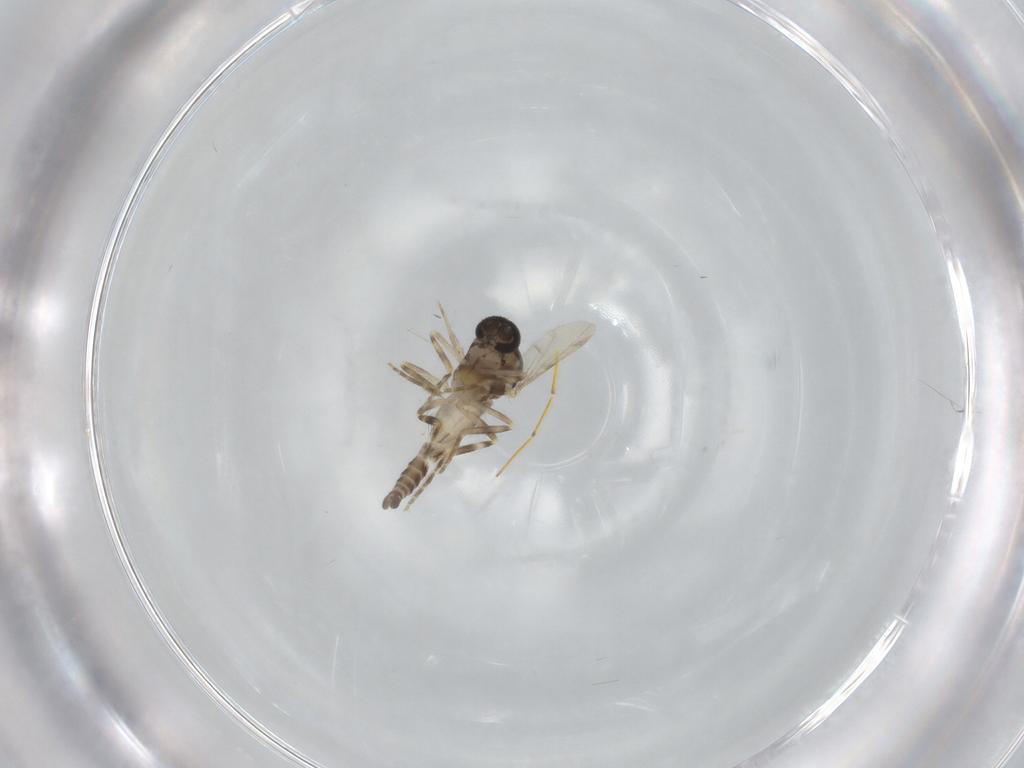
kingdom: Animalia
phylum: Arthropoda
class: Insecta
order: Diptera
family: Ceratopogonidae
